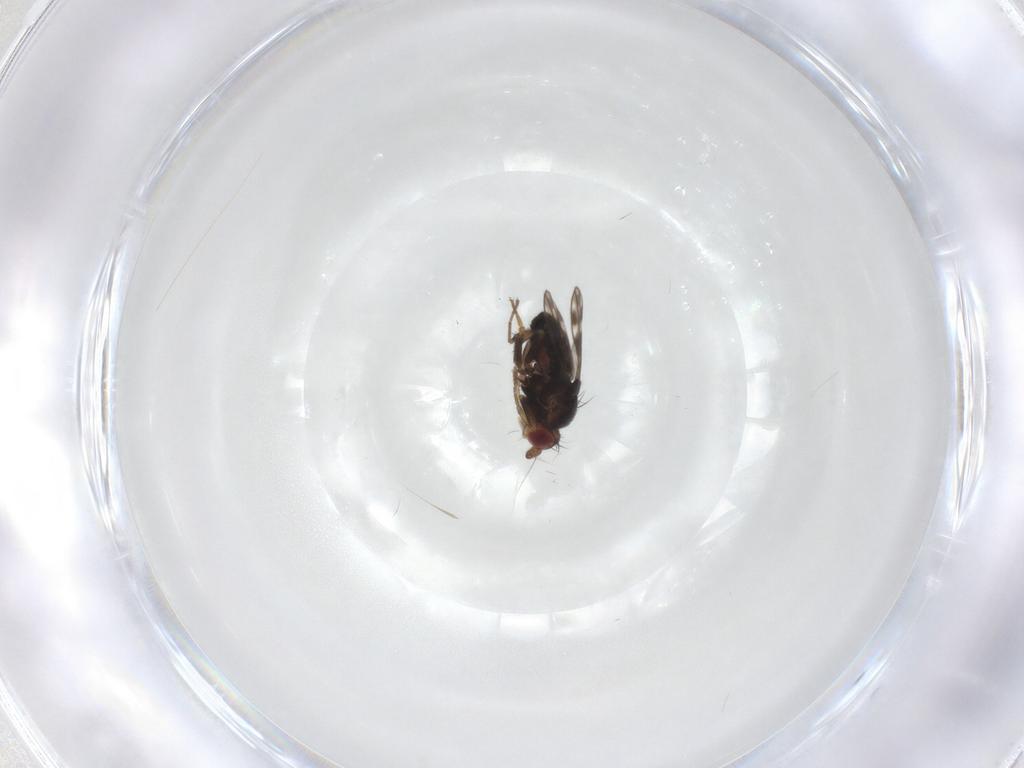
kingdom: Animalia
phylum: Arthropoda
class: Insecta
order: Diptera
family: Sphaeroceridae
